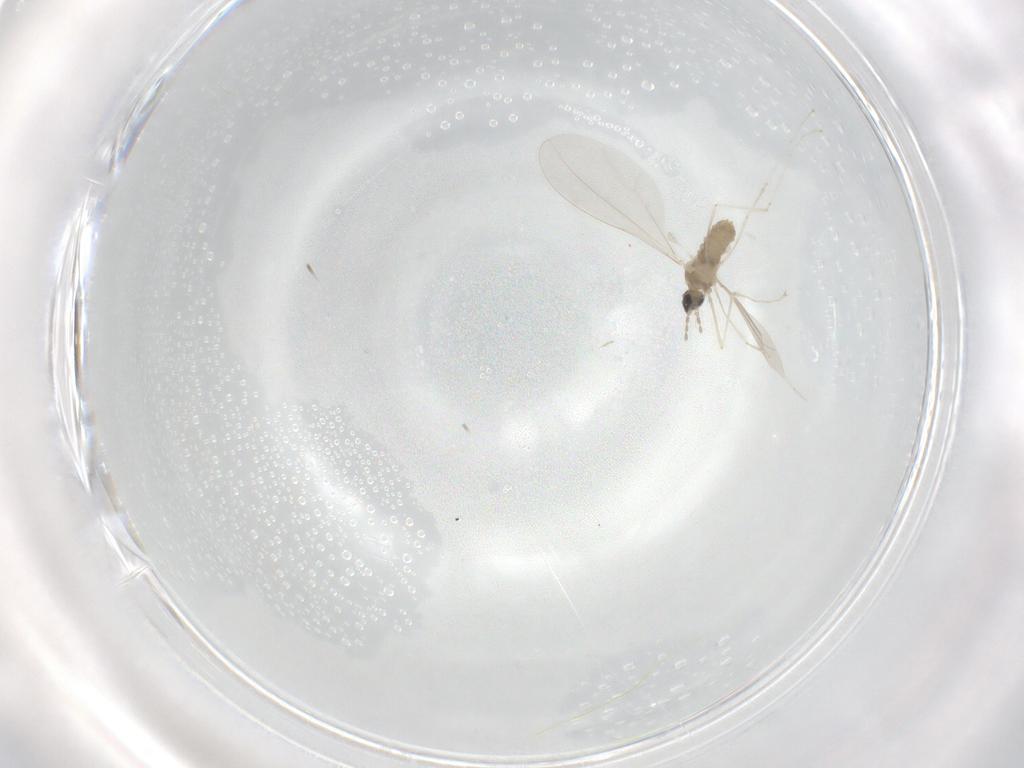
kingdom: Animalia
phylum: Arthropoda
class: Insecta
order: Diptera
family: Cecidomyiidae
